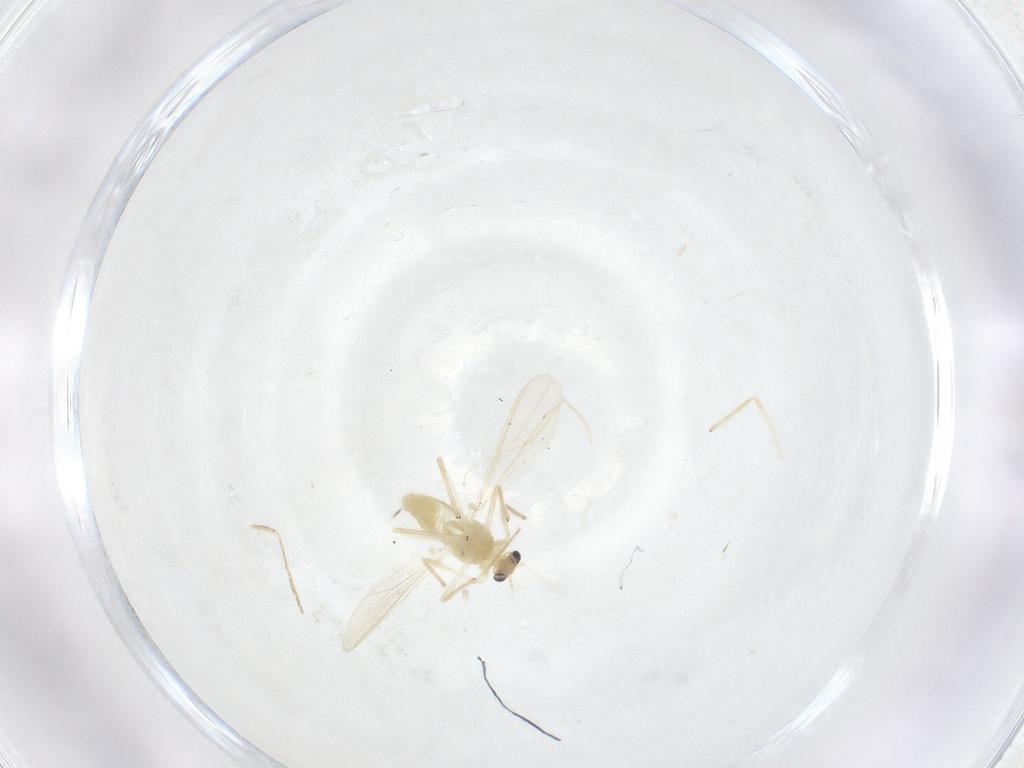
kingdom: Animalia
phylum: Arthropoda
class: Insecta
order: Diptera
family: Chironomidae
